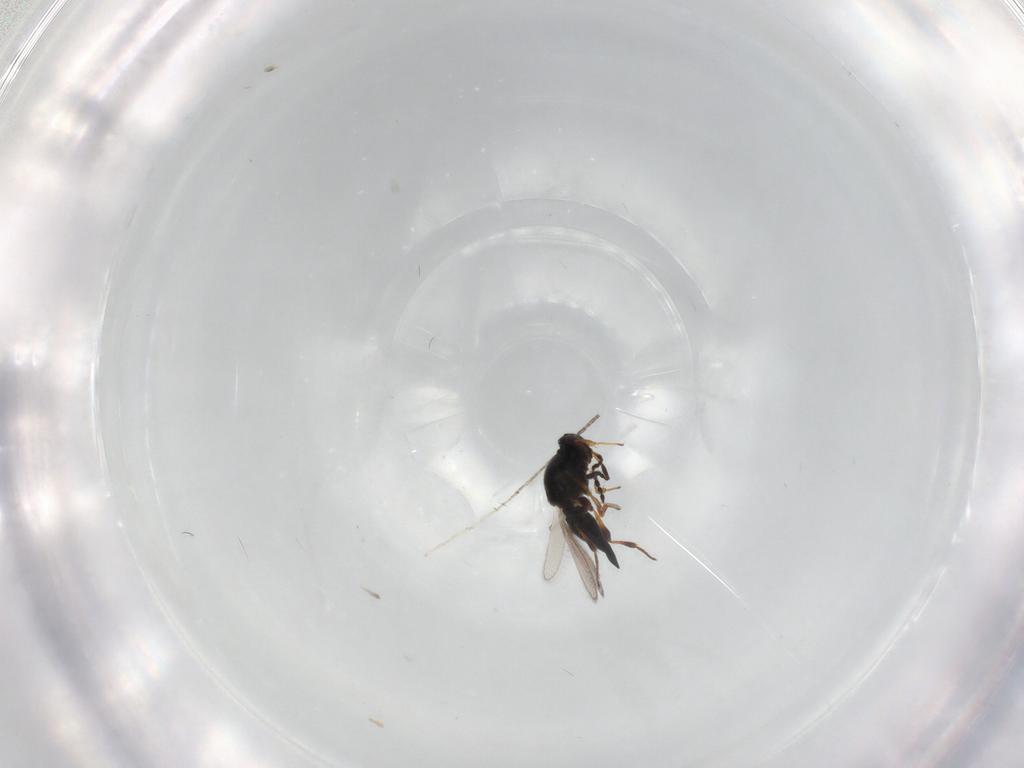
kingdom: Animalia
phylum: Arthropoda
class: Insecta
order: Hymenoptera
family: Platygastridae
